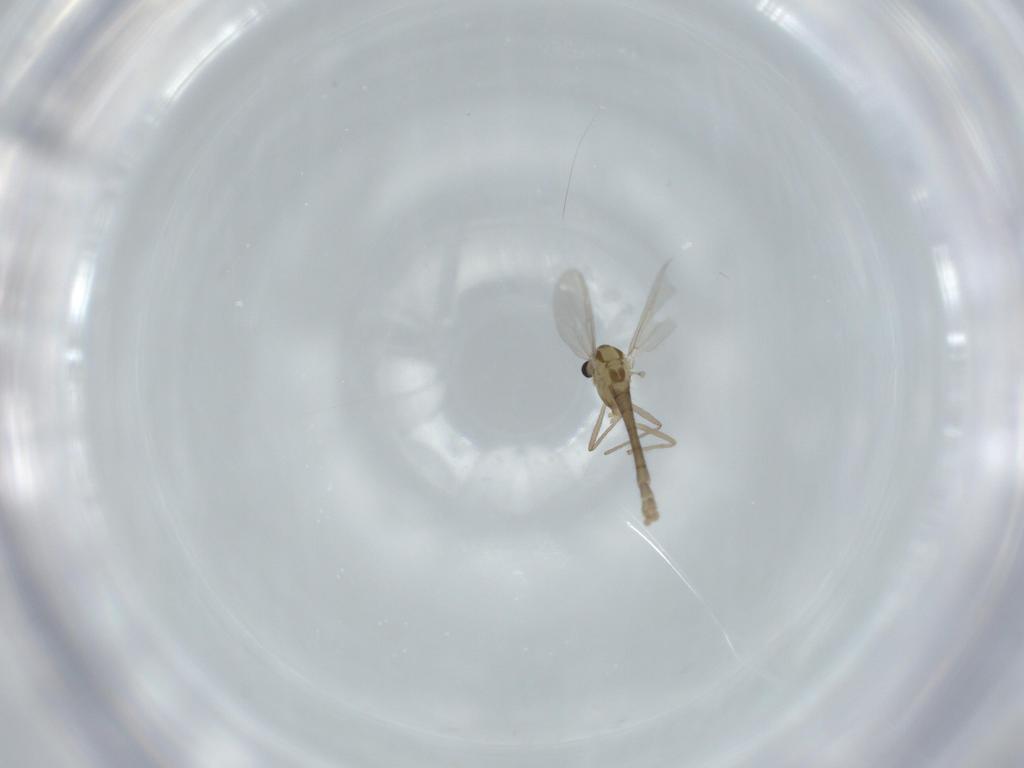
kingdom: Animalia
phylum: Arthropoda
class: Insecta
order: Diptera
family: Chironomidae
